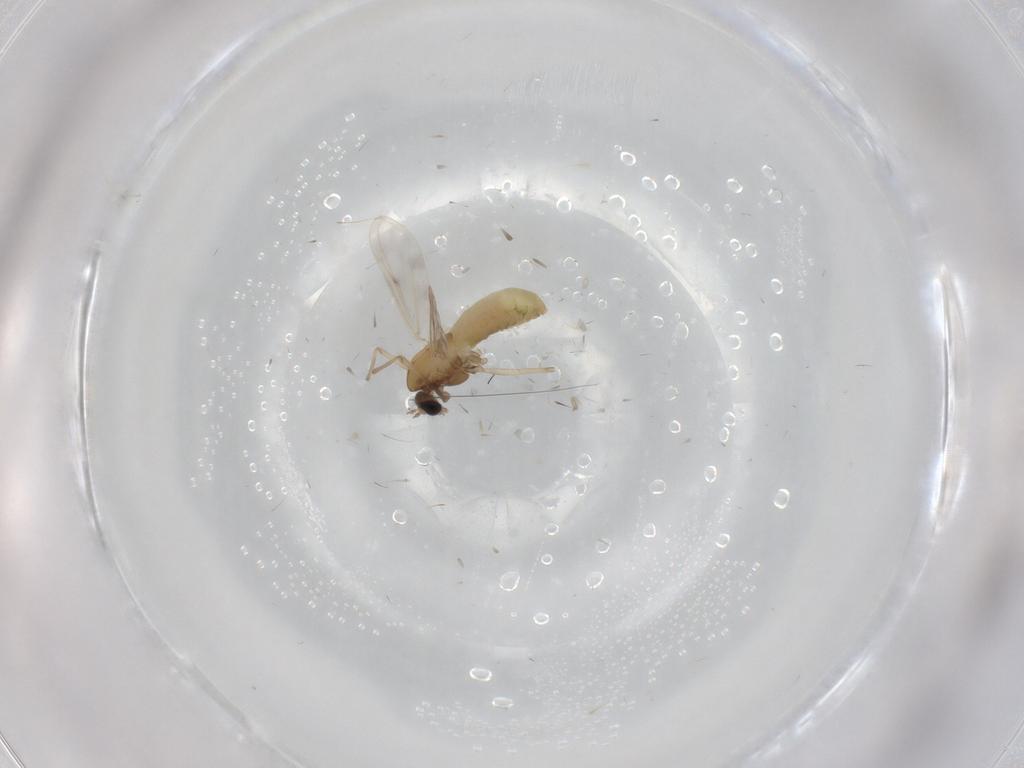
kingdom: Animalia
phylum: Arthropoda
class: Insecta
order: Diptera
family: Chironomidae
